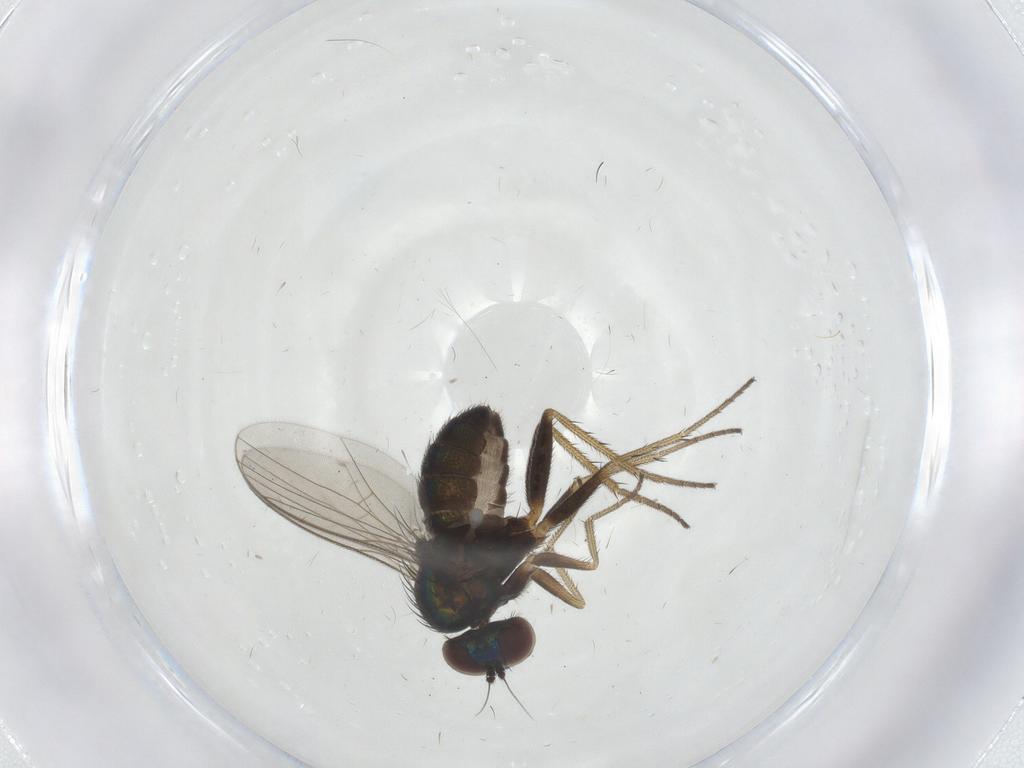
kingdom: Animalia
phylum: Arthropoda
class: Insecta
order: Diptera
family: Dolichopodidae
